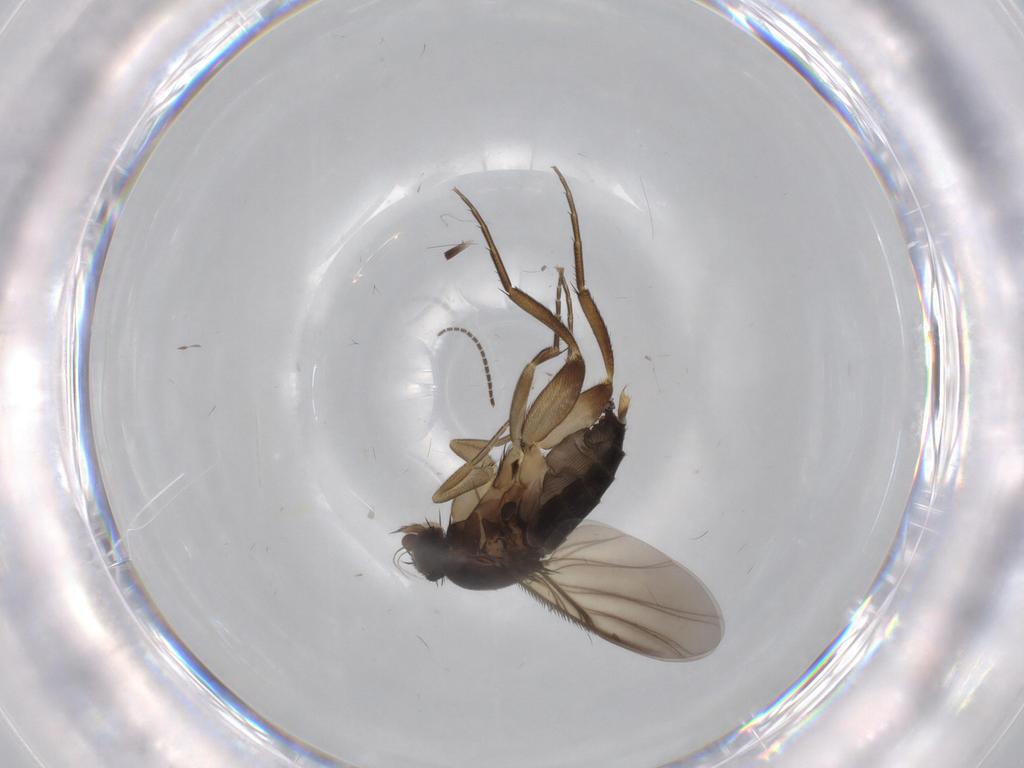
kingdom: Animalia
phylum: Arthropoda
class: Insecta
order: Diptera
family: Phoridae
